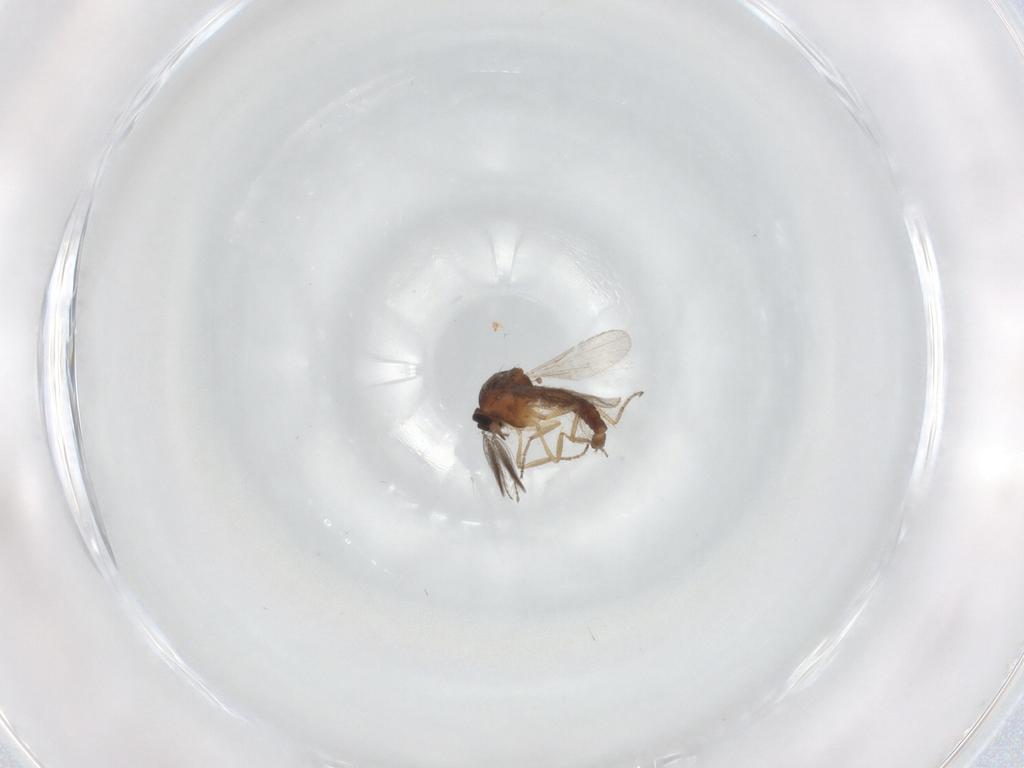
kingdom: Animalia
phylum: Arthropoda
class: Insecta
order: Diptera
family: Ceratopogonidae
